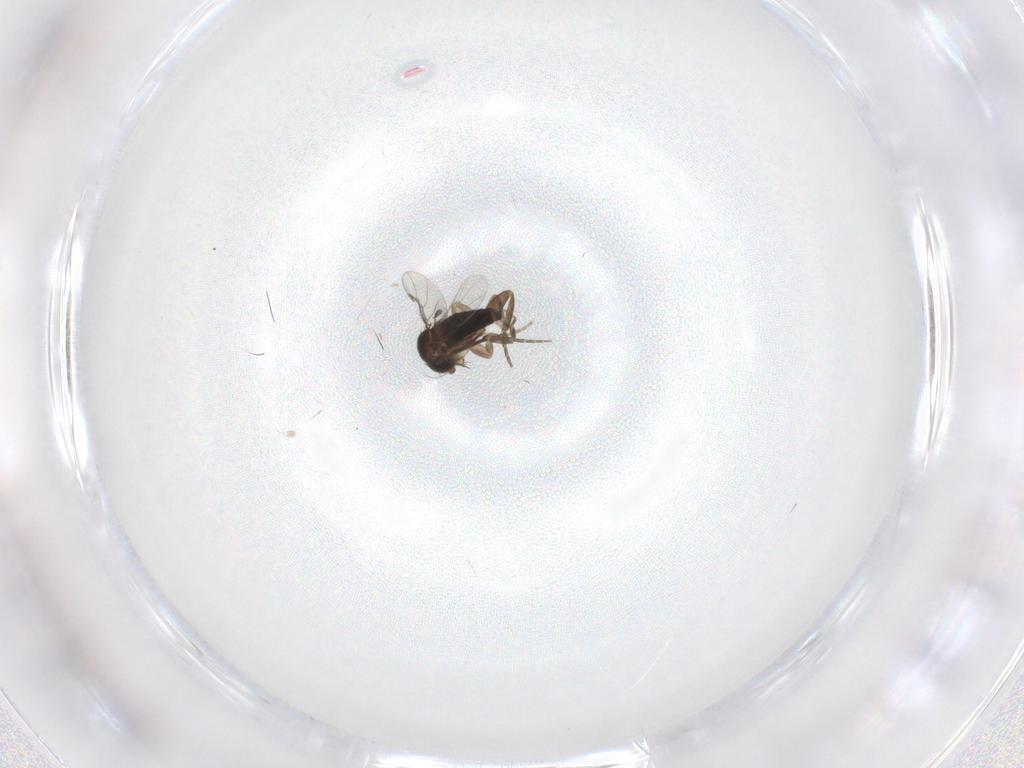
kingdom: Animalia
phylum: Arthropoda
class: Insecta
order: Diptera
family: Phoridae
